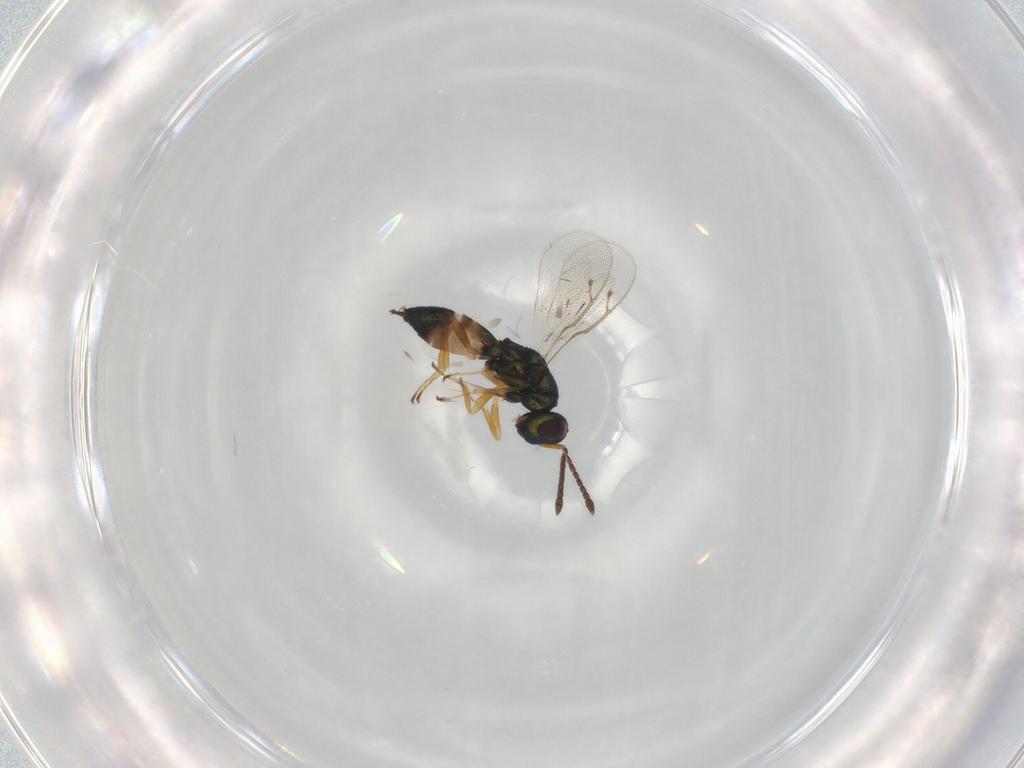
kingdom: Animalia
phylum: Arthropoda
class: Insecta
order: Hymenoptera
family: Pteromalidae
